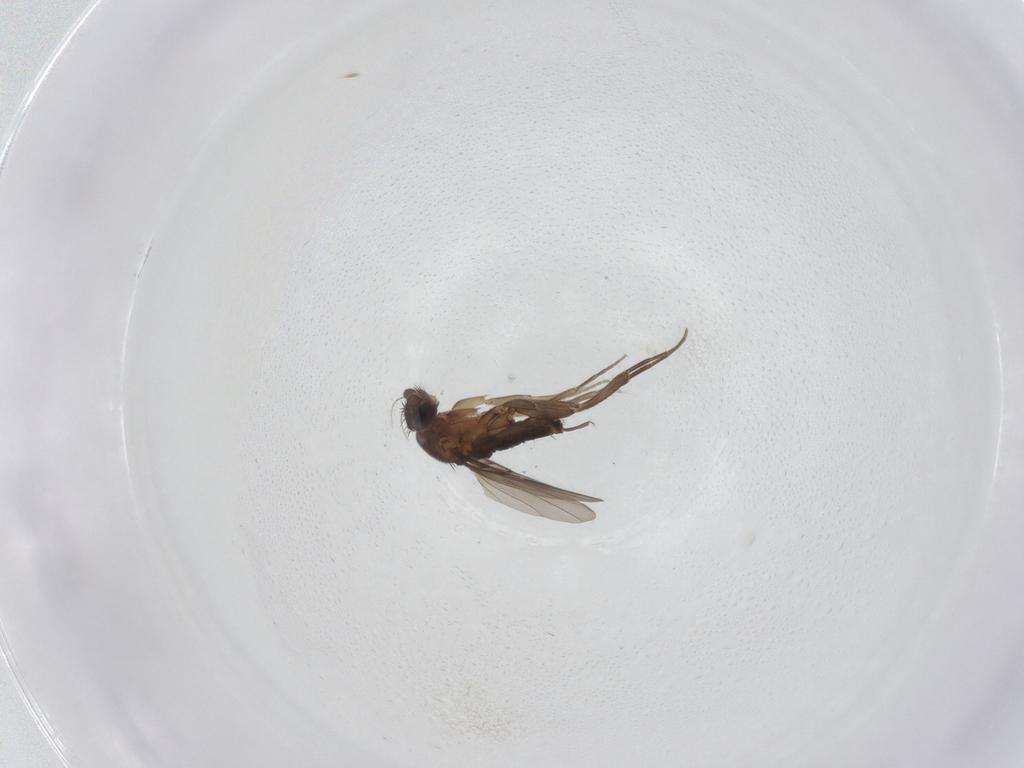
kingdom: Animalia
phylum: Arthropoda
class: Insecta
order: Diptera
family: Phoridae
